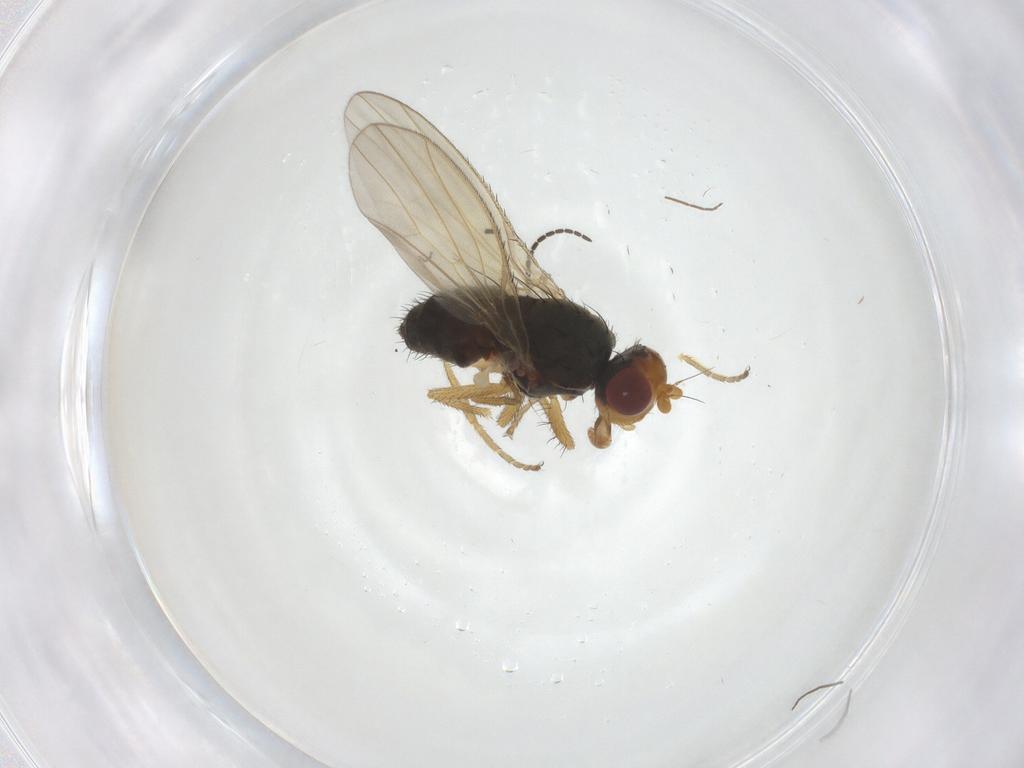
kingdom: Animalia
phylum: Arthropoda
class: Insecta
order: Diptera
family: Heleomyzidae
